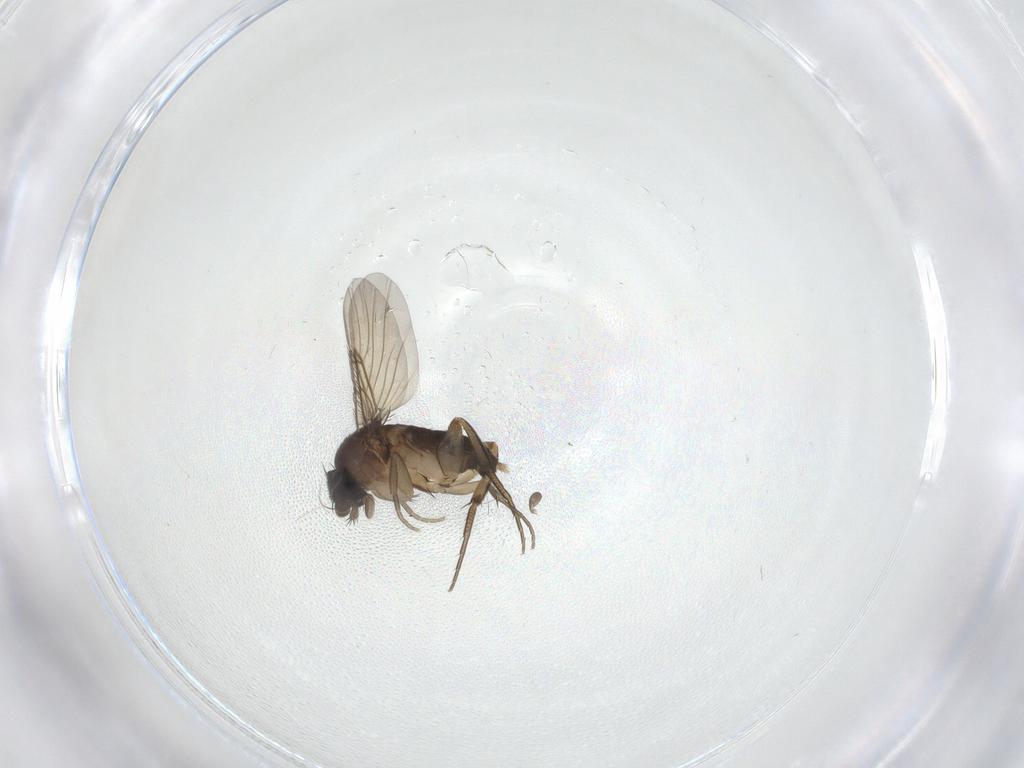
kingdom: Animalia
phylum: Arthropoda
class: Insecta
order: Diptera
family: Phoridae
